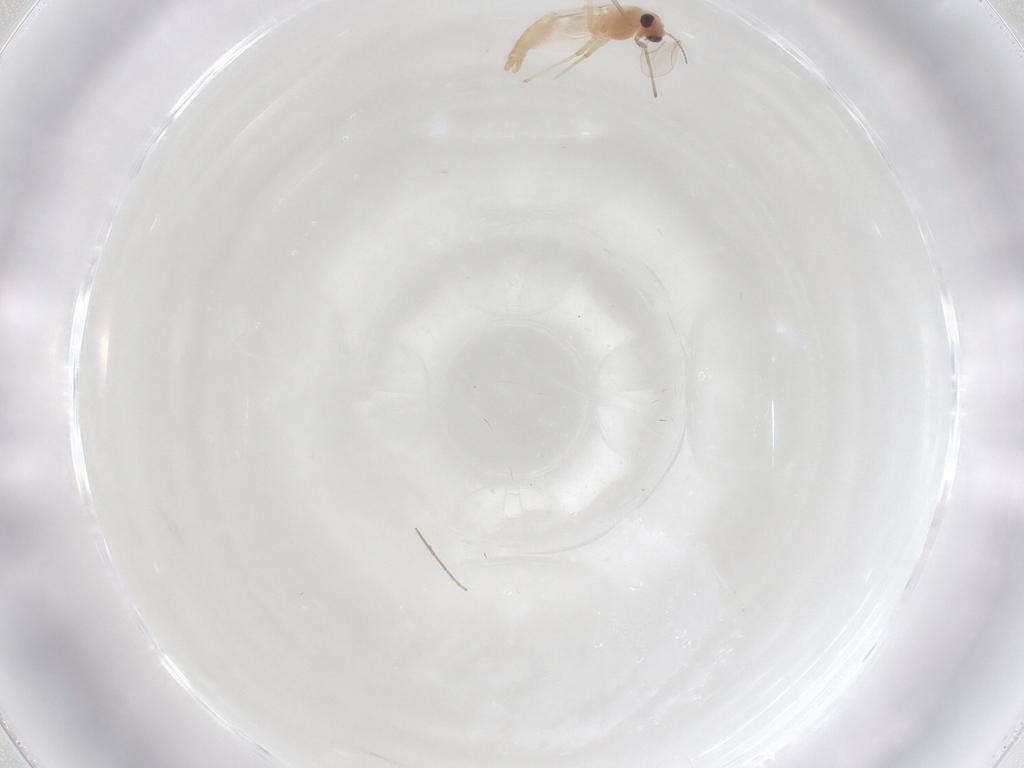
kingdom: Animalia
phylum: Arthropoda
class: Insecta
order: Diptera
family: Chironomidae
